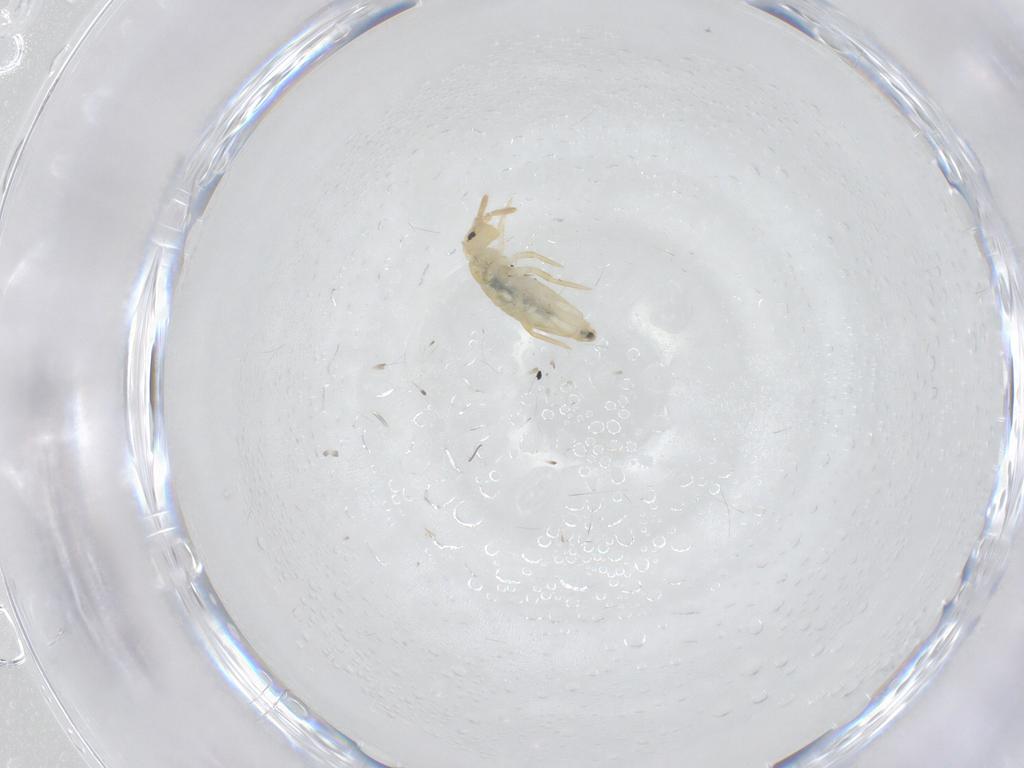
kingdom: Animalia
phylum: Arthropoda
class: Collembola
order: Entomobryomorpha
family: Entomobryidae
